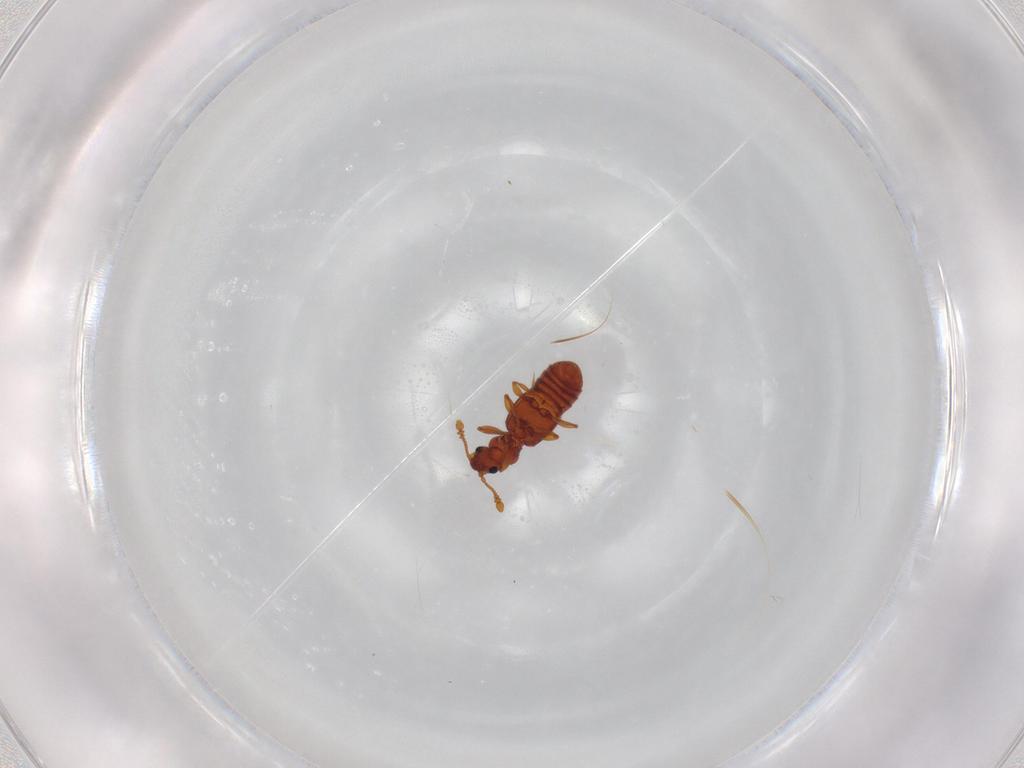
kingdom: Animalia
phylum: Arthropoda
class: Insecta
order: Coleoptera
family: Staphylinidae
